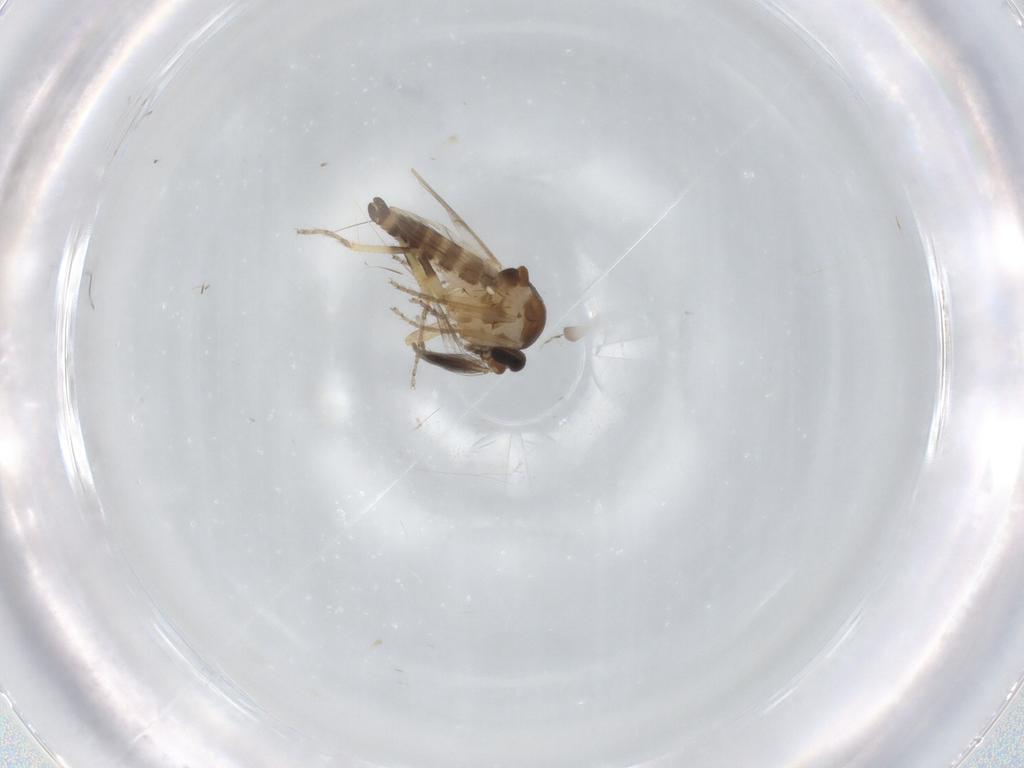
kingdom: Animalia
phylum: Arthropoda
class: Insecta
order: Diptera
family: Ceratopogonidae
